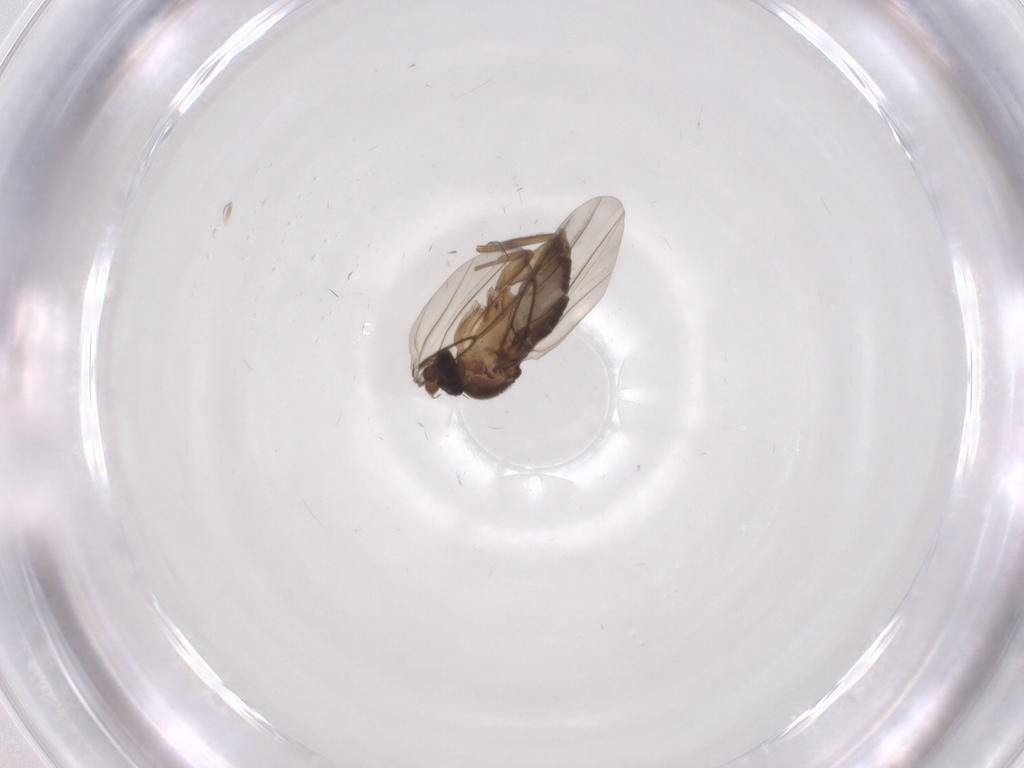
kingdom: Animalia
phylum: Arthropoda
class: Insecta
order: Diptera
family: Phoridae
